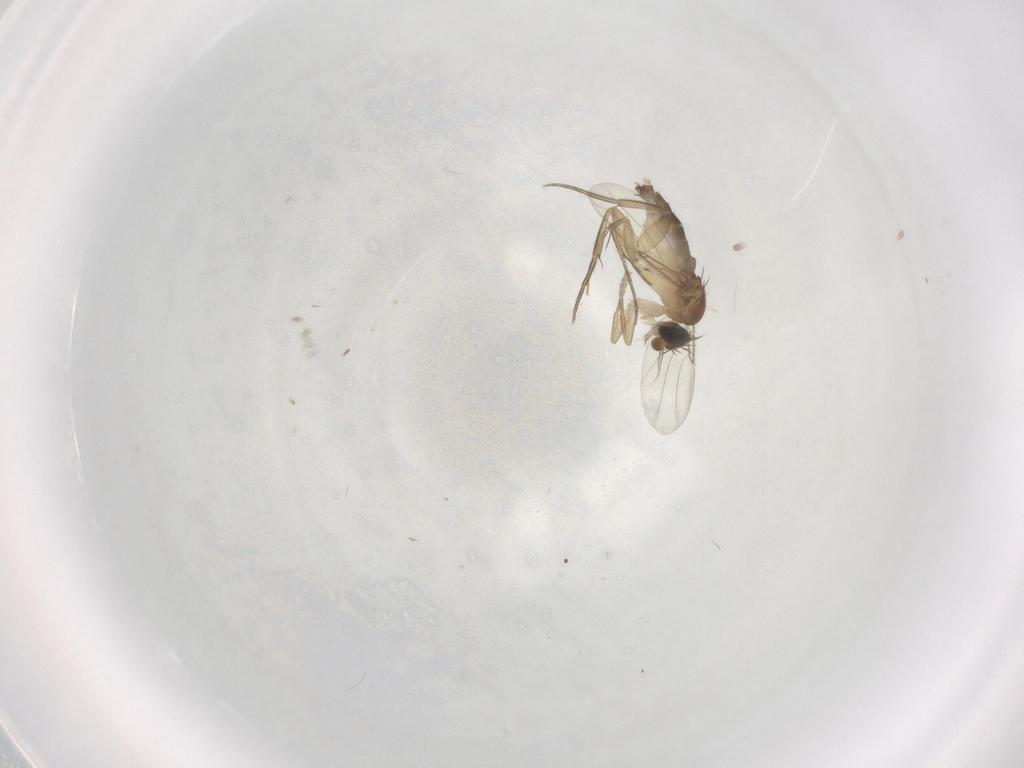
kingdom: Animalia
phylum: Arthropoda
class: Insecta
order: Diptera
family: Phoridae
